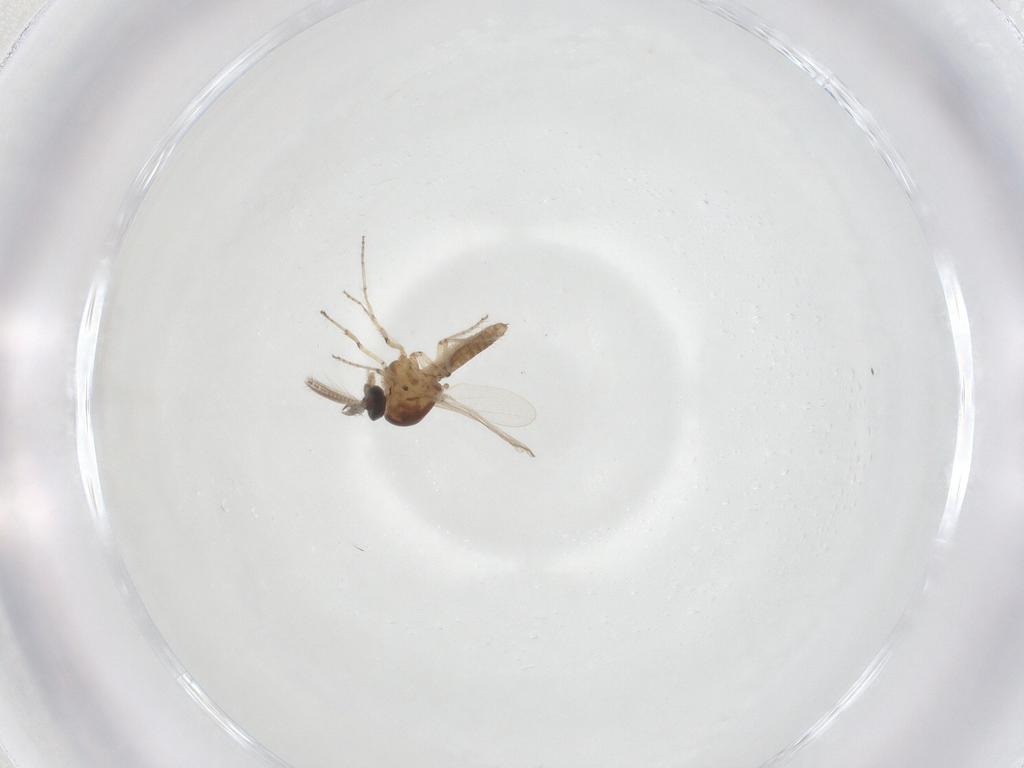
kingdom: Animalia
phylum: Arthropoda
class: Insecta
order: Diptera
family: Ceratopogonidae
